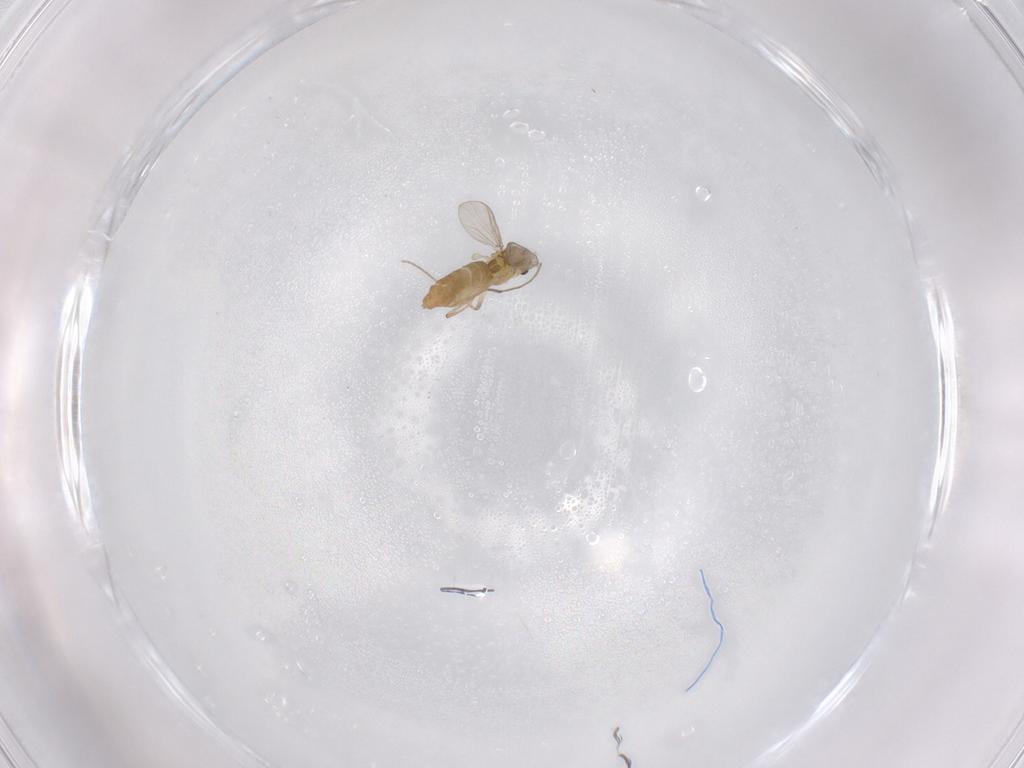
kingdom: Animalia
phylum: Arthropoda
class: Insecta
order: Diptera
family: Chironomidae
